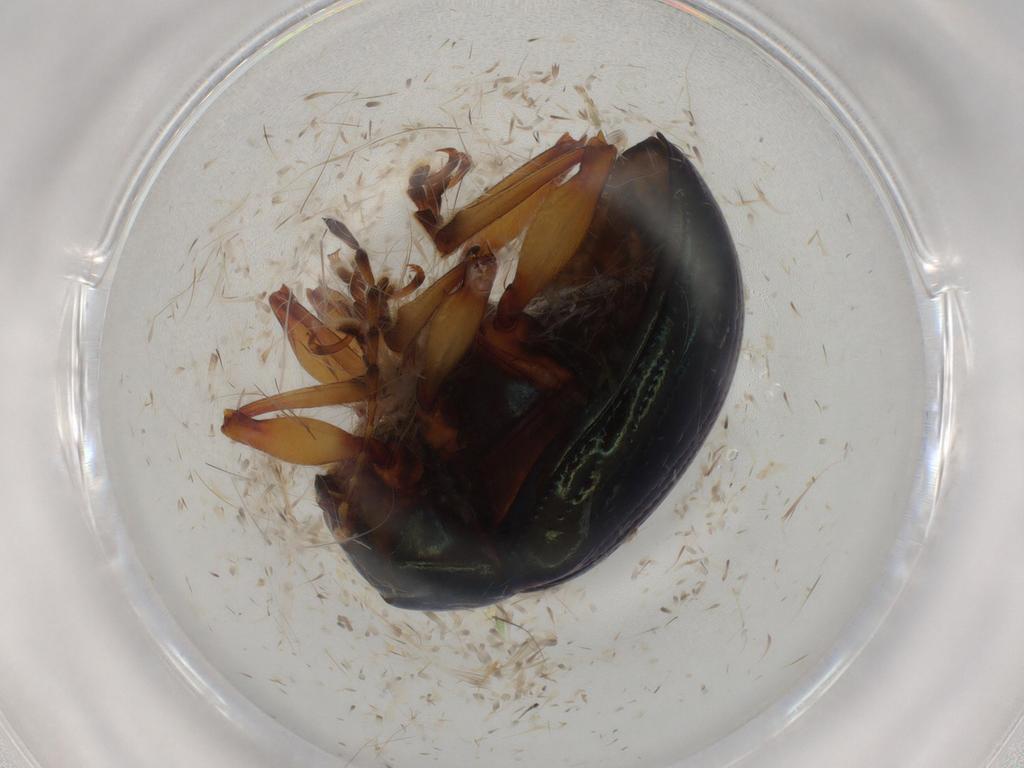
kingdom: Animalia
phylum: Arthropoda
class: Insecta
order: Coleoptera
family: Chrysomelidae
